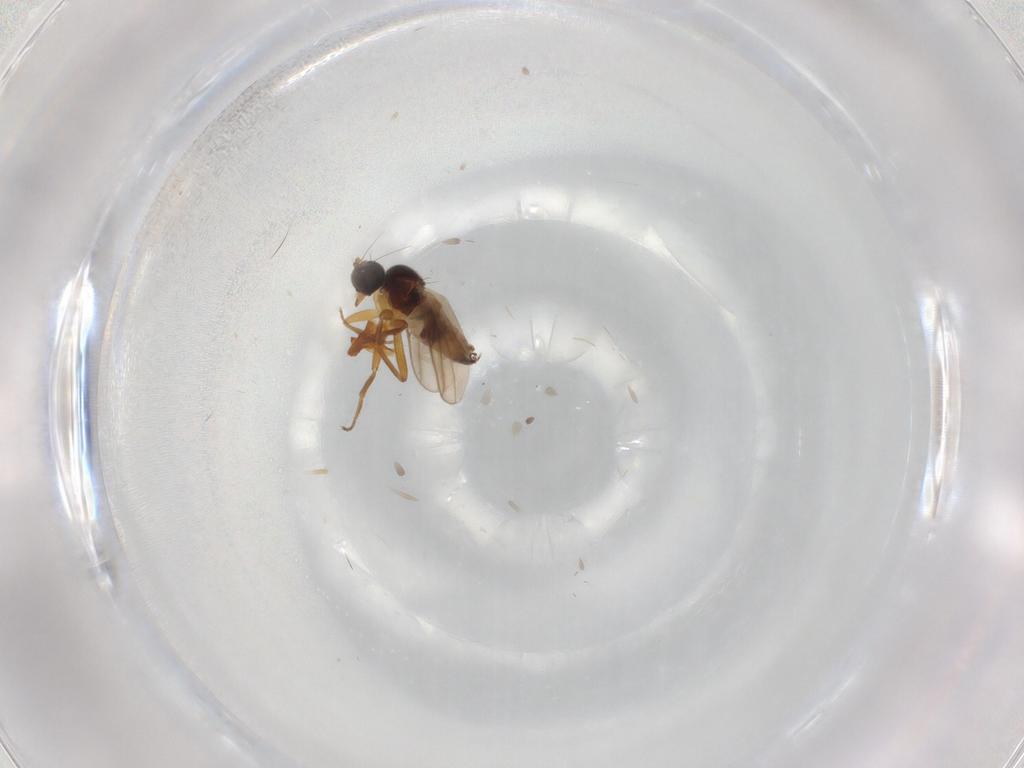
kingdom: Animalia
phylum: Arthropoda
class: Insecta
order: Diptera
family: Hybotidae
